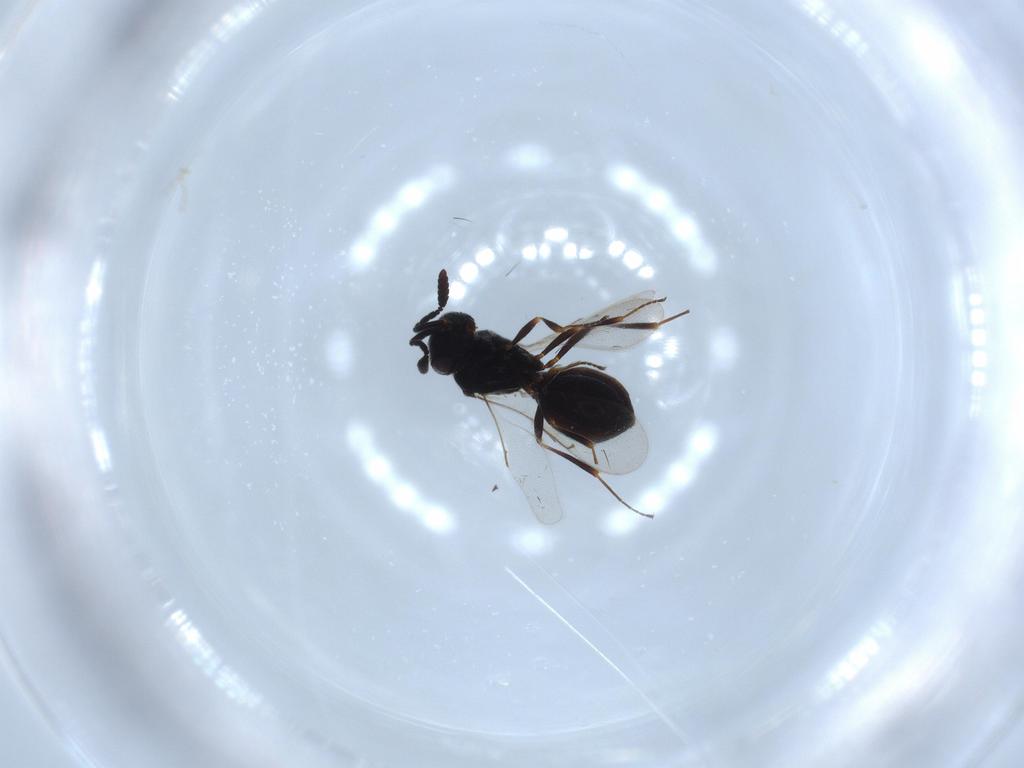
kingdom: Animalia
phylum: Arthropoda
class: Insecta
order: Hymenoptera
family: Scelionidae
